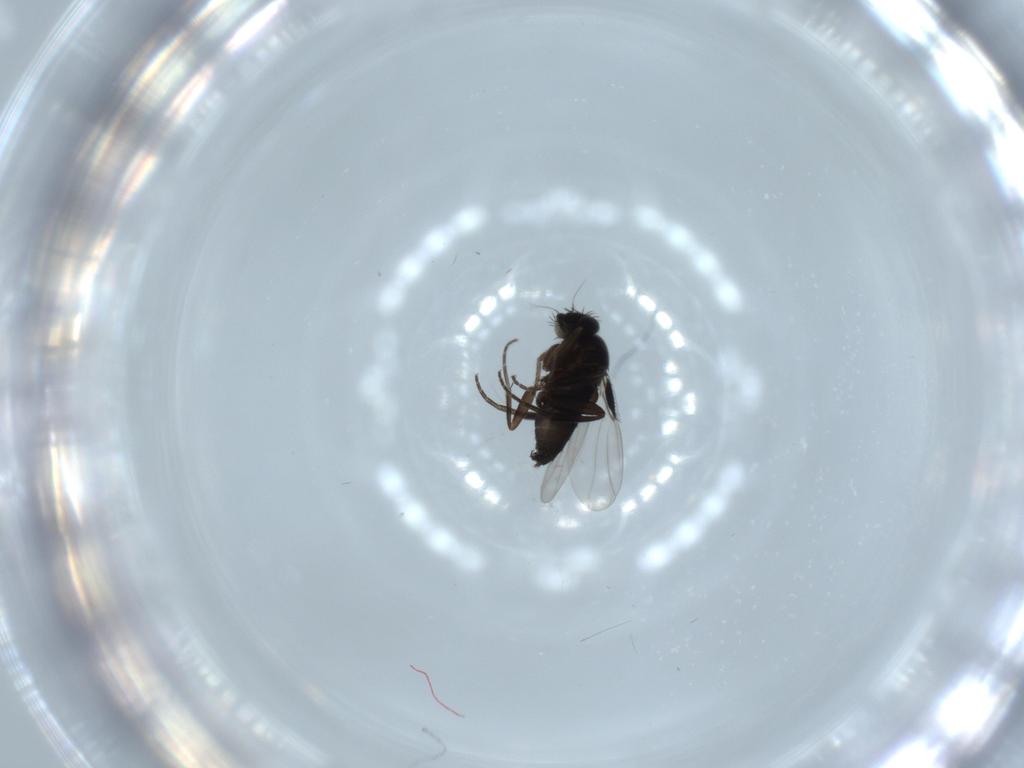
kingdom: Animalia
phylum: Arthropoda
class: Insecta
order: Diptera
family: Phoridae
